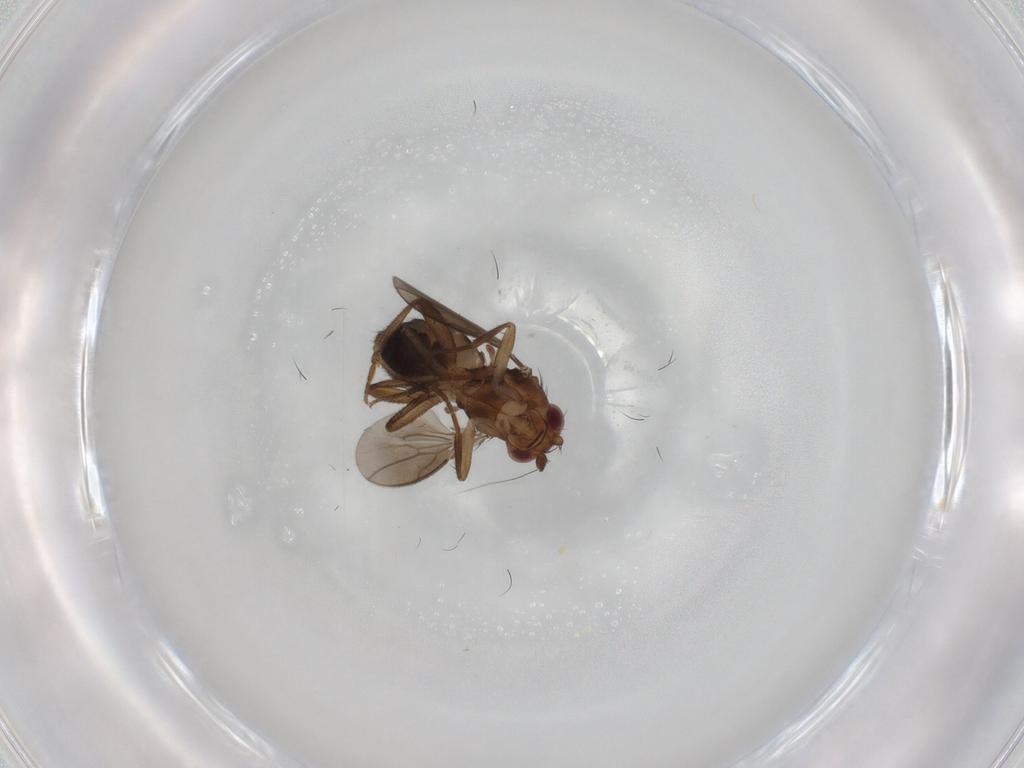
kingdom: Animalia
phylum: Arthropoda
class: Insecta
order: Diptera
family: Sphaeroceridae
